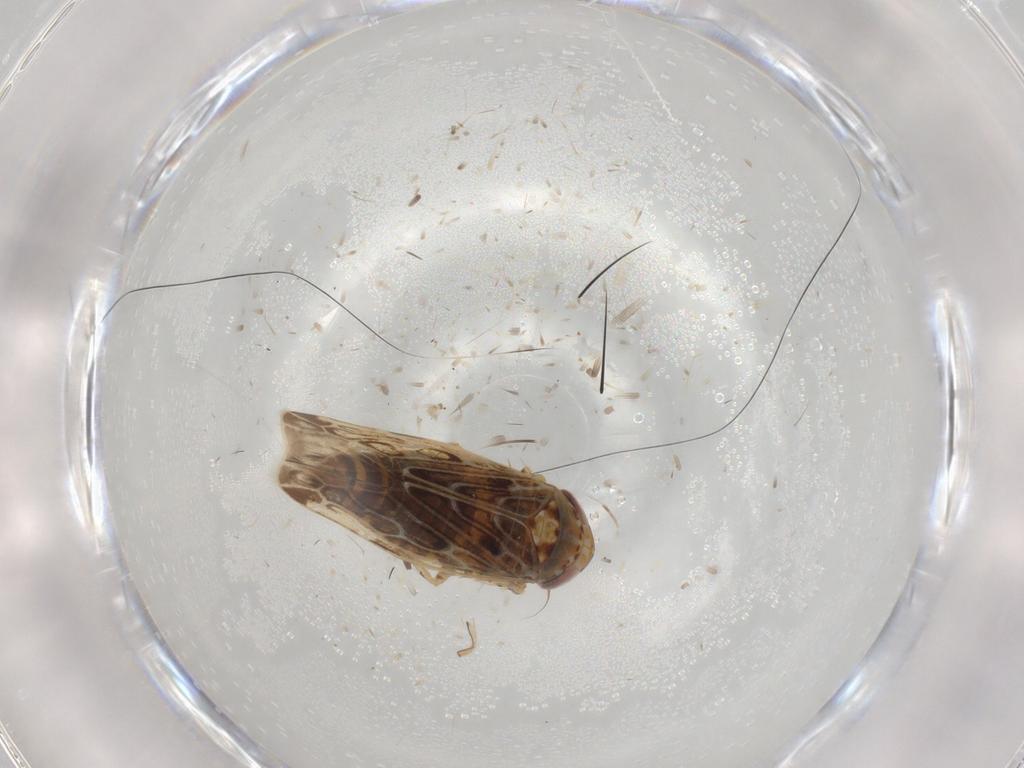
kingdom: Animalia
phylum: Arthropoda
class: Insecta
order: Hemiptera
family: Cicadellidae
